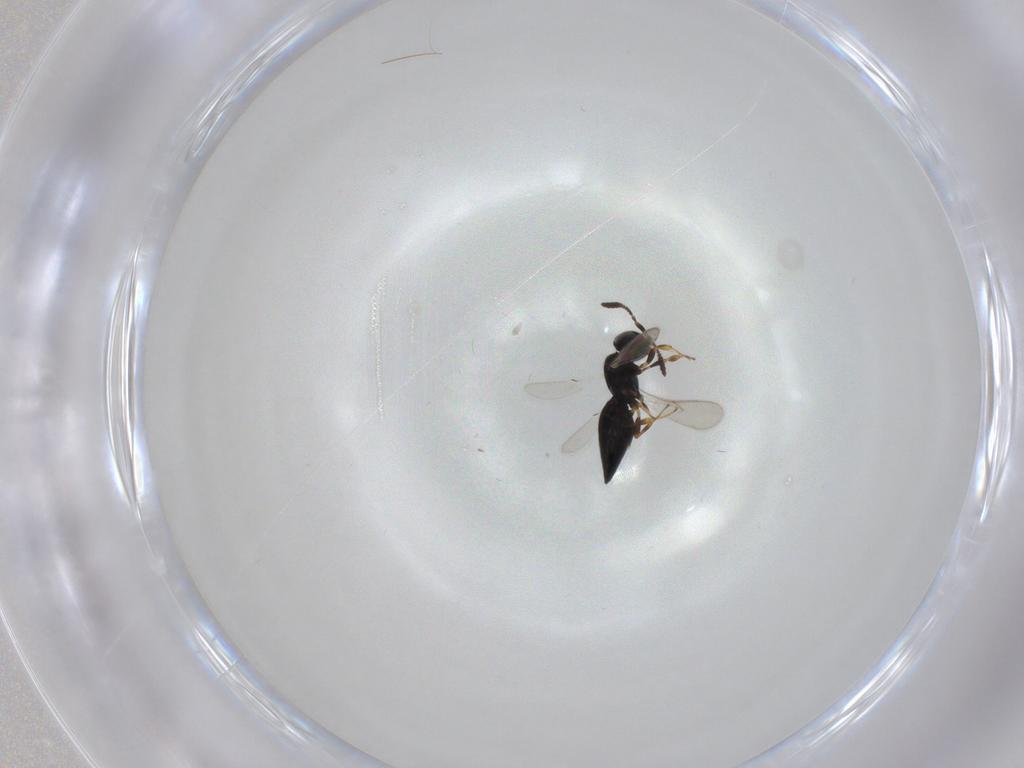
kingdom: Animalia
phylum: Arthropoda
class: Insecta
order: Hymenoptera
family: Scelionidae
